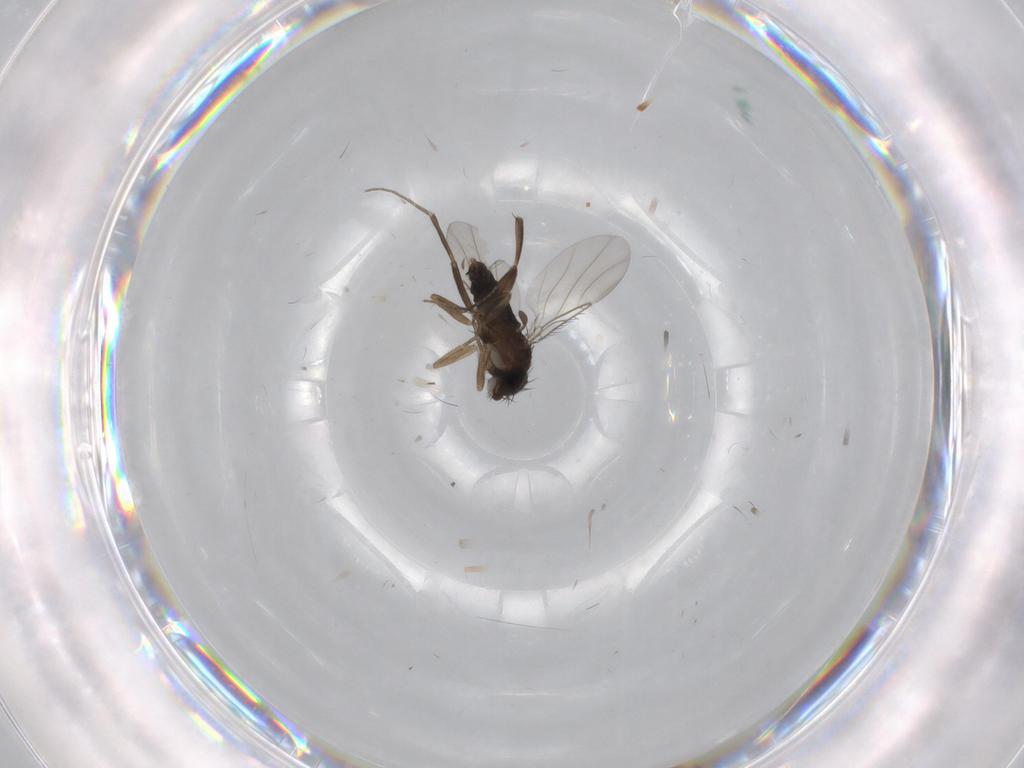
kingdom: Animalia
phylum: Arthropoda
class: Insecta
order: Diptera
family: Phoridae
